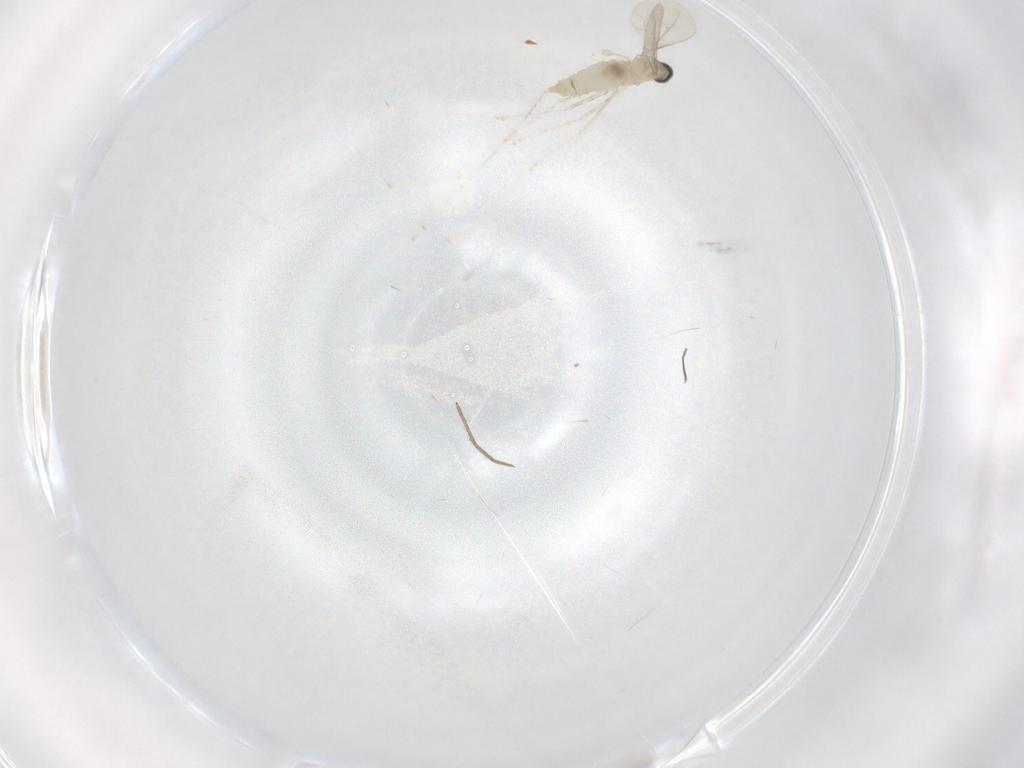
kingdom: Animalia
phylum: Arthropoda
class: Insecta
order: Diptera
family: Chironomidae
